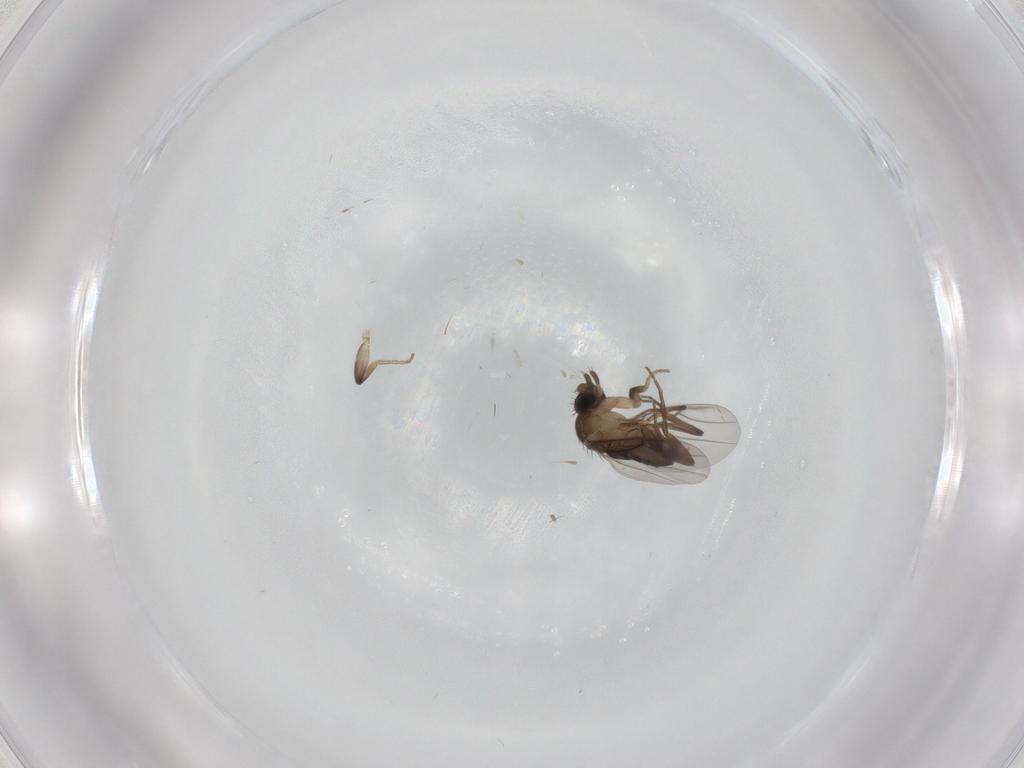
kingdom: Animalia
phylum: Arthropoda
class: Insecta
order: Diptera
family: Phoridae
